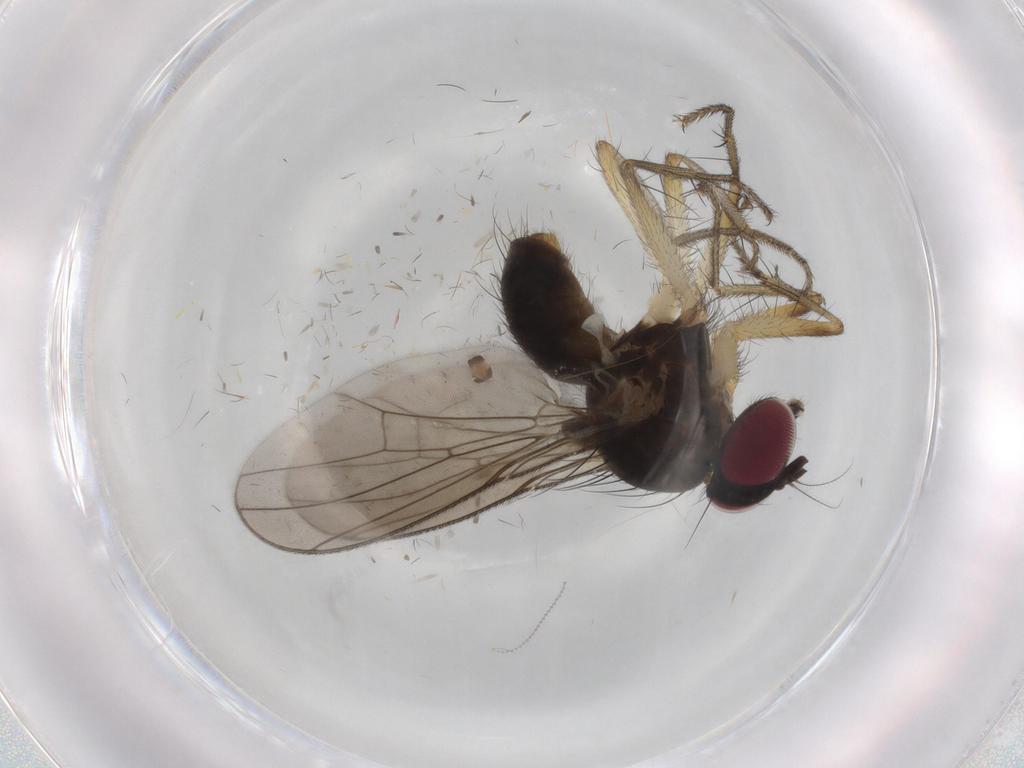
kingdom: Animalia
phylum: Arthropoda
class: Insecta
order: Diptera
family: Anthomyiidae
